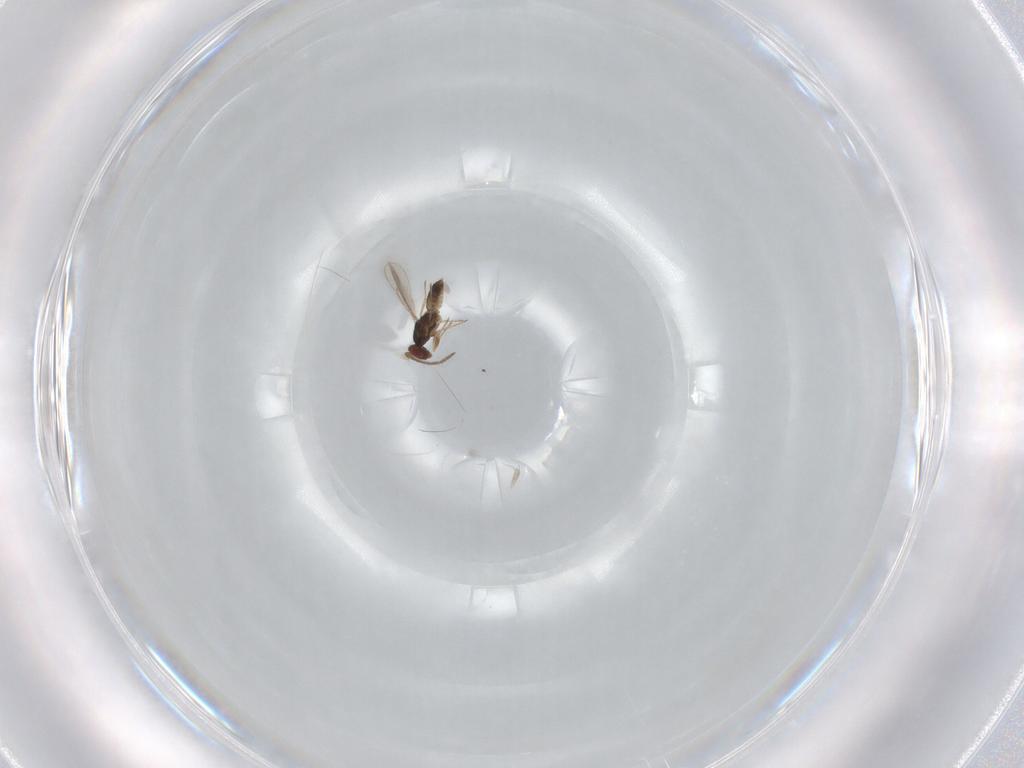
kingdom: Animalia
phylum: Arthropoda
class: Insecta
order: Hymenoptera
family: Eulophidae
